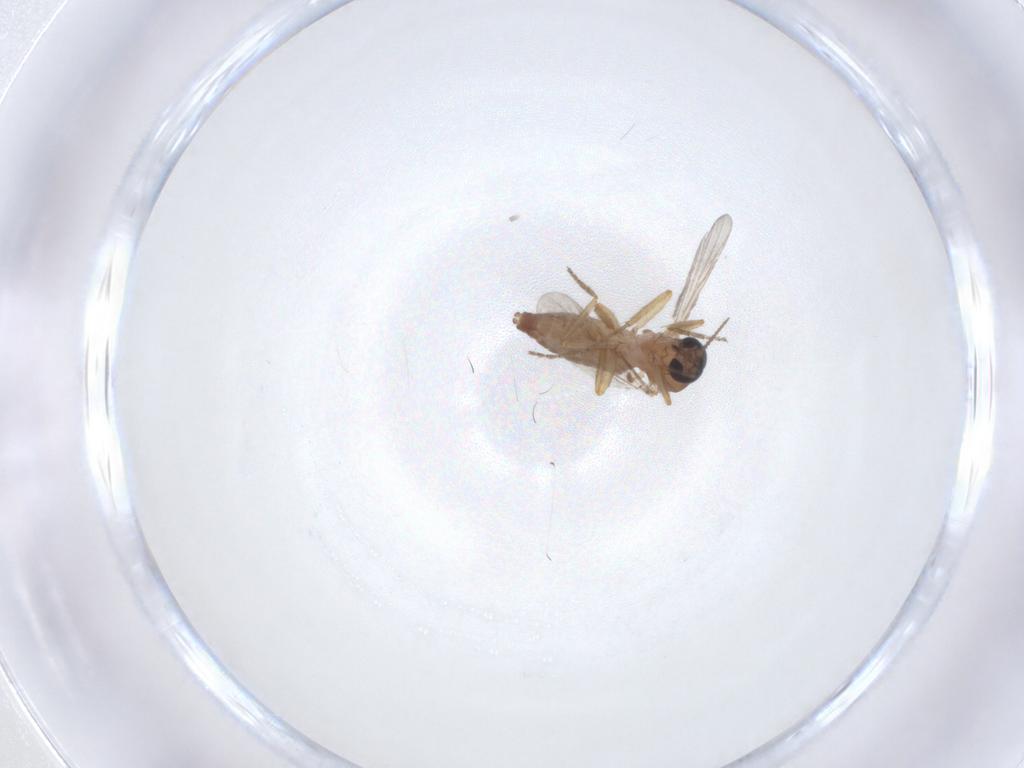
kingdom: Animalia
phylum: Arthropoda
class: Insecta
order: Diptera
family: Ceratopogonidae
